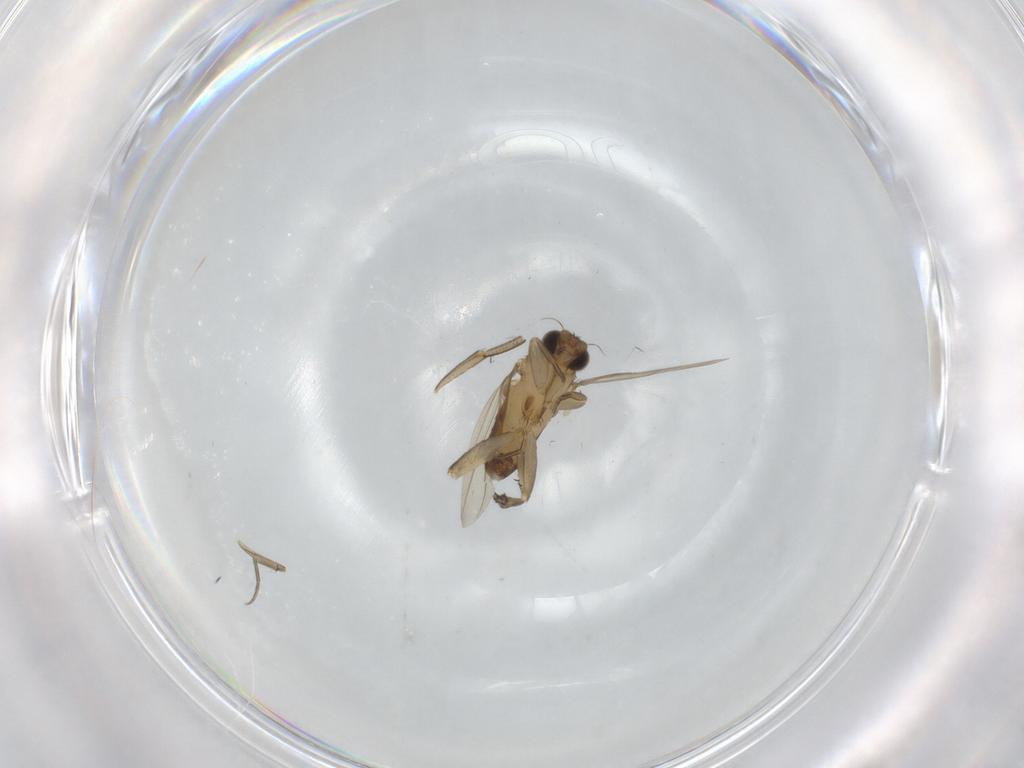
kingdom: Animalia
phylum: Arthropoda
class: Insecta
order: Diptera
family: Phoridae
